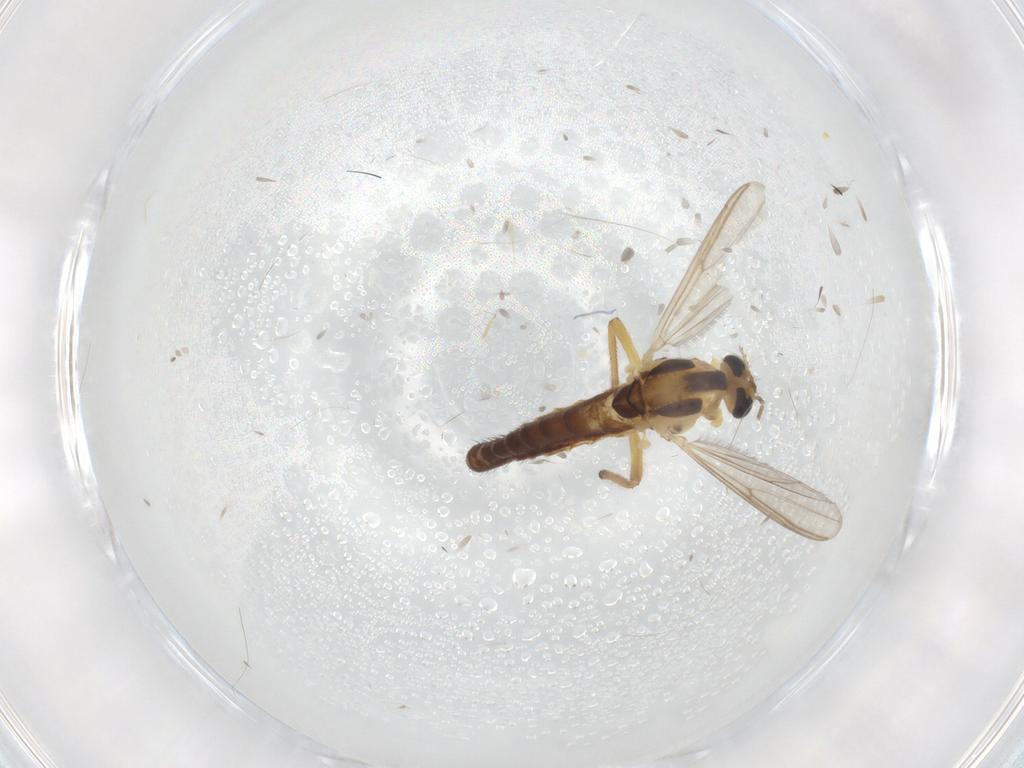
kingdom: Animalia
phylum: Arthropoda
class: Insecta
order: Diptera
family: Chironomidae
